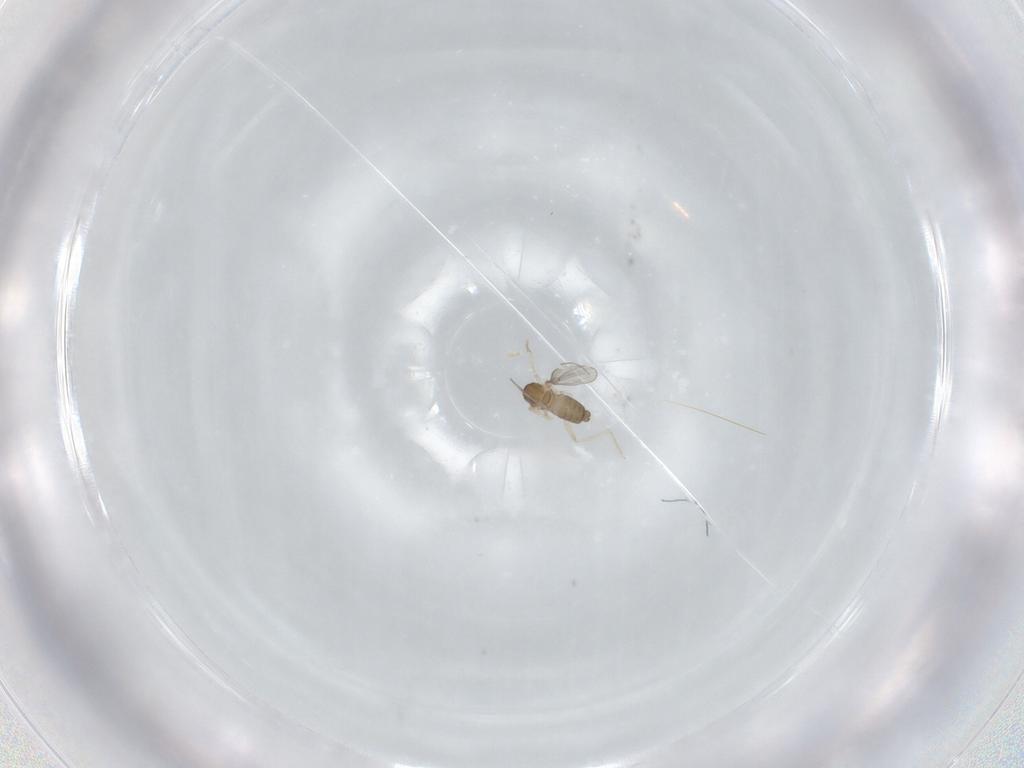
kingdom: Animalia
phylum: Arthropoda
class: Insecta
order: Diptera
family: Cecidomyiidae
